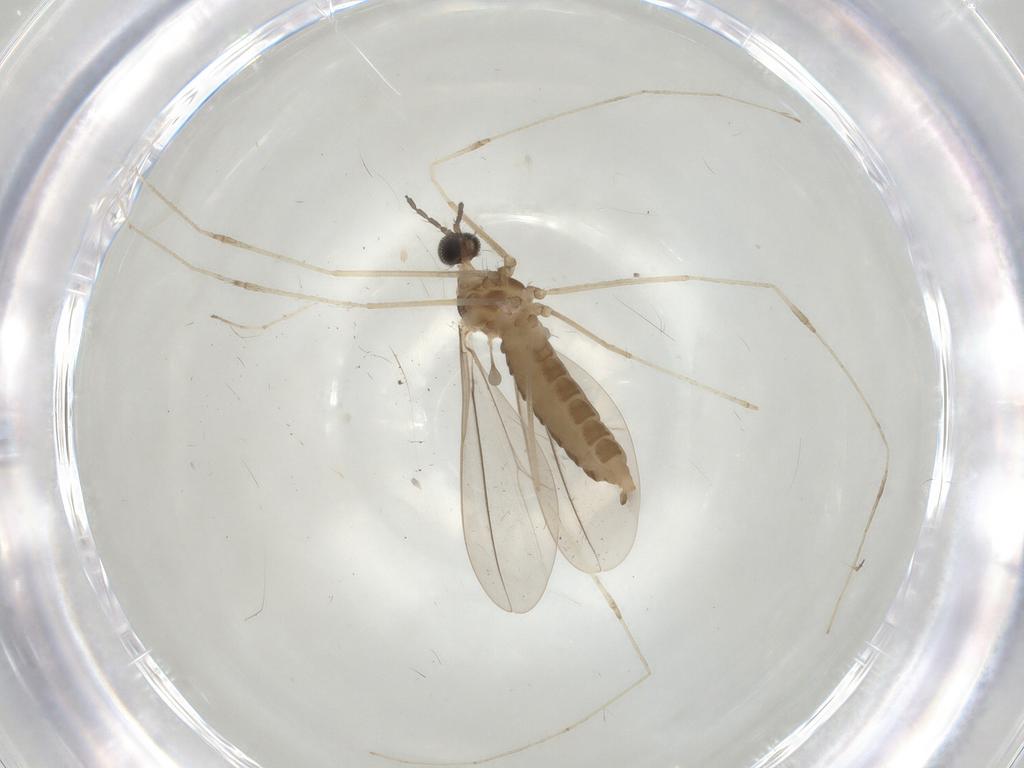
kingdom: Animalia
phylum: Arthropoda
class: Insecta
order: Diptera
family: Cecidomyiidae
